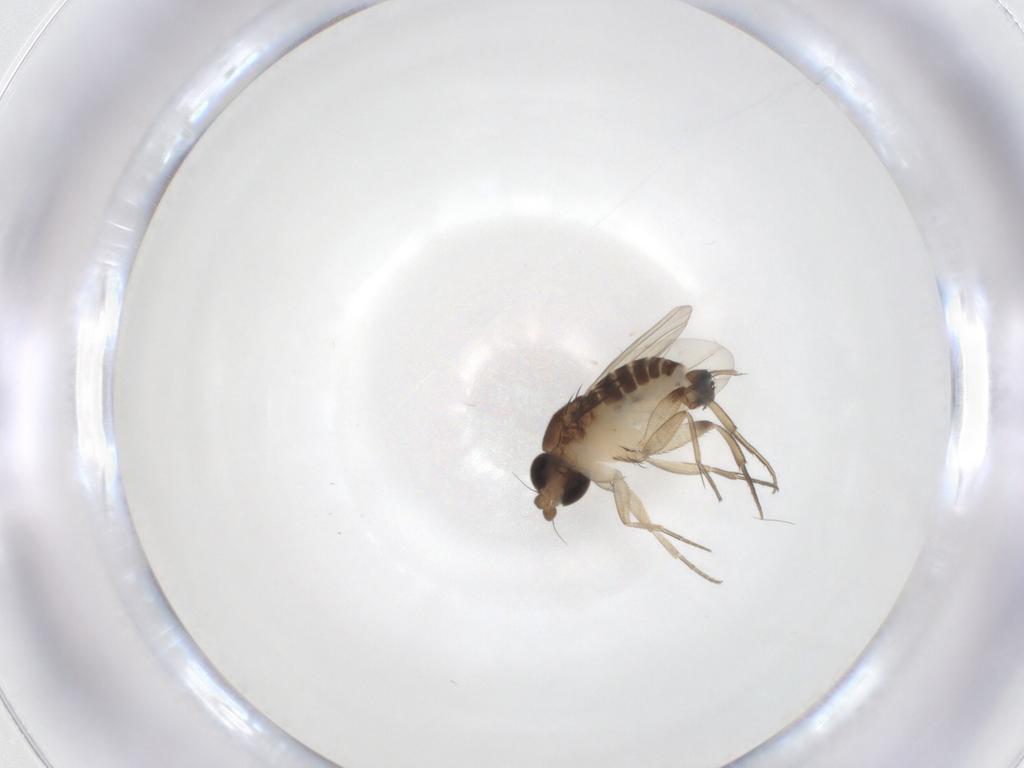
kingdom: Animalia
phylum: Arthropoda
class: Insecta
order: Diptera
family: Phoridae
